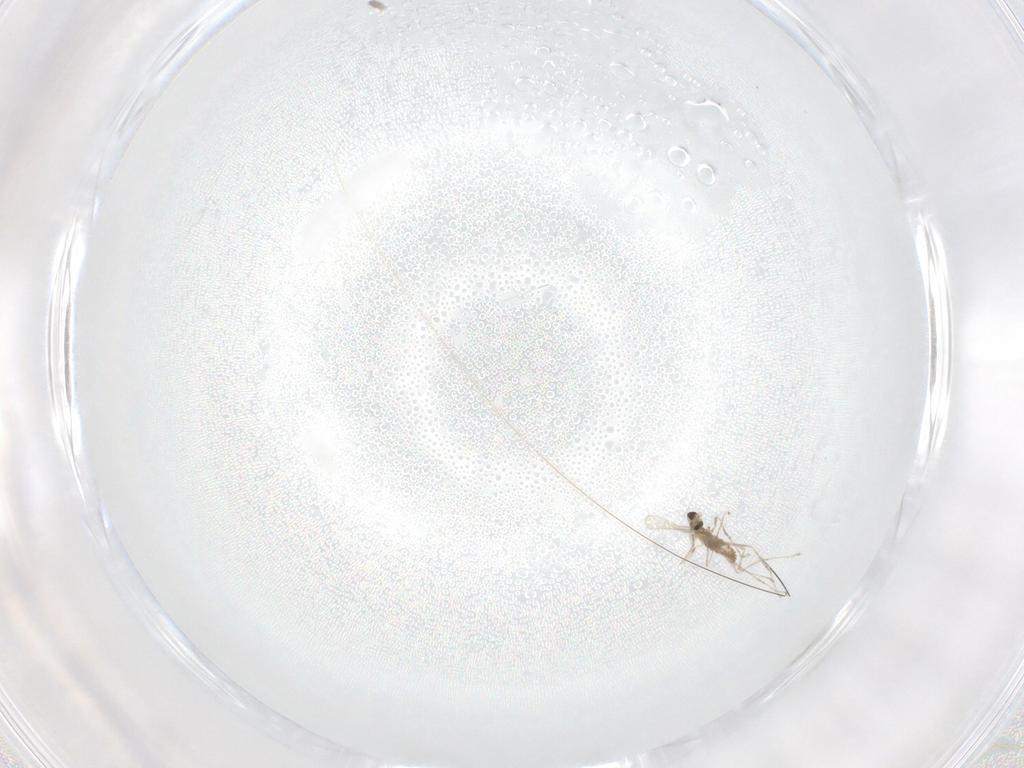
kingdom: Animalia
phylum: Arthropoda
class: Insecta
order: Diptera
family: Cecidomyiidae
